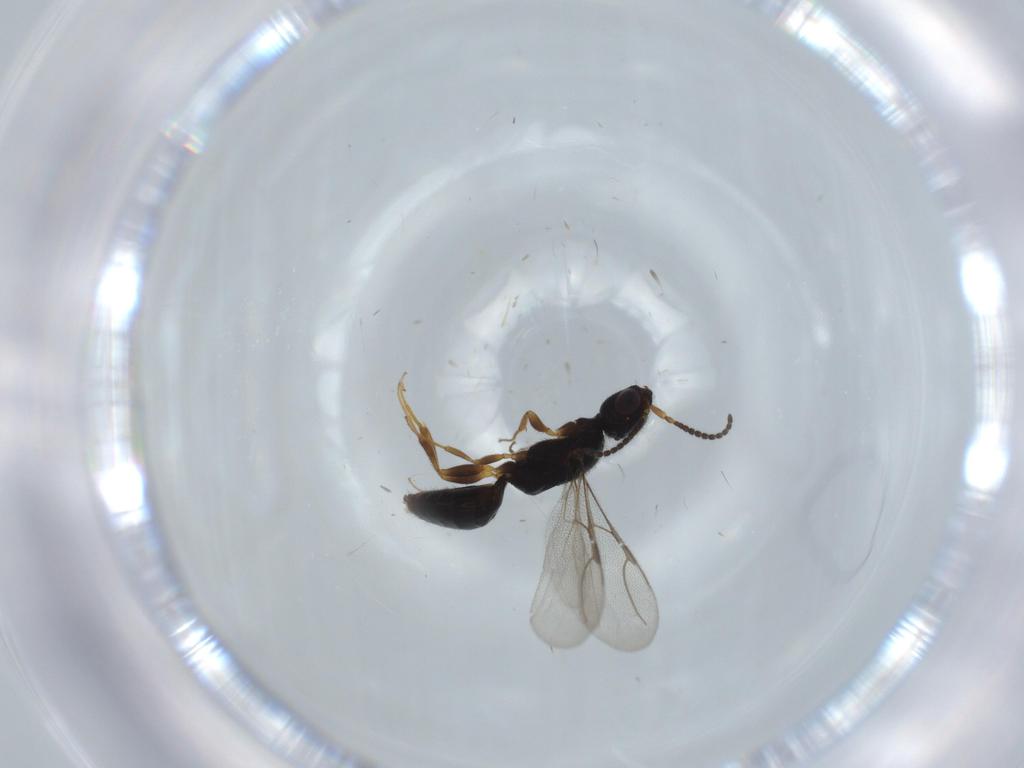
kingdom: Animalia
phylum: Arthropoda
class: Insecta
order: Hymenoptera
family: Bethylidae
